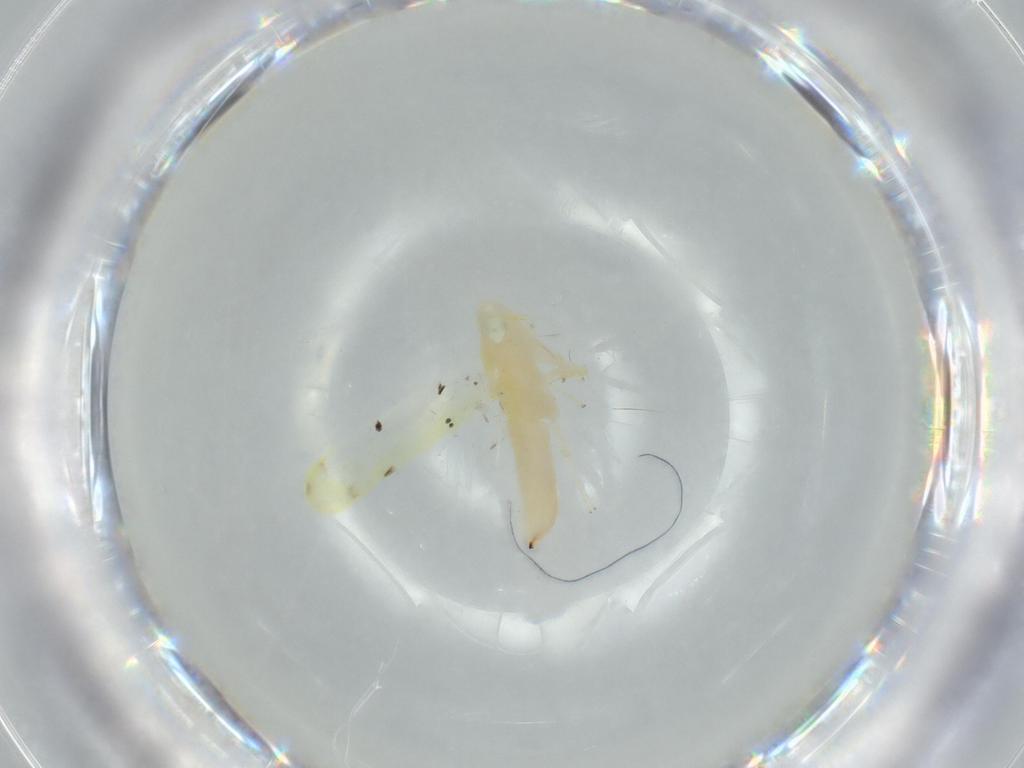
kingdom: Animalia
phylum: Arthropoda
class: Insecta
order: Hemiptera
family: Cicadellidae
